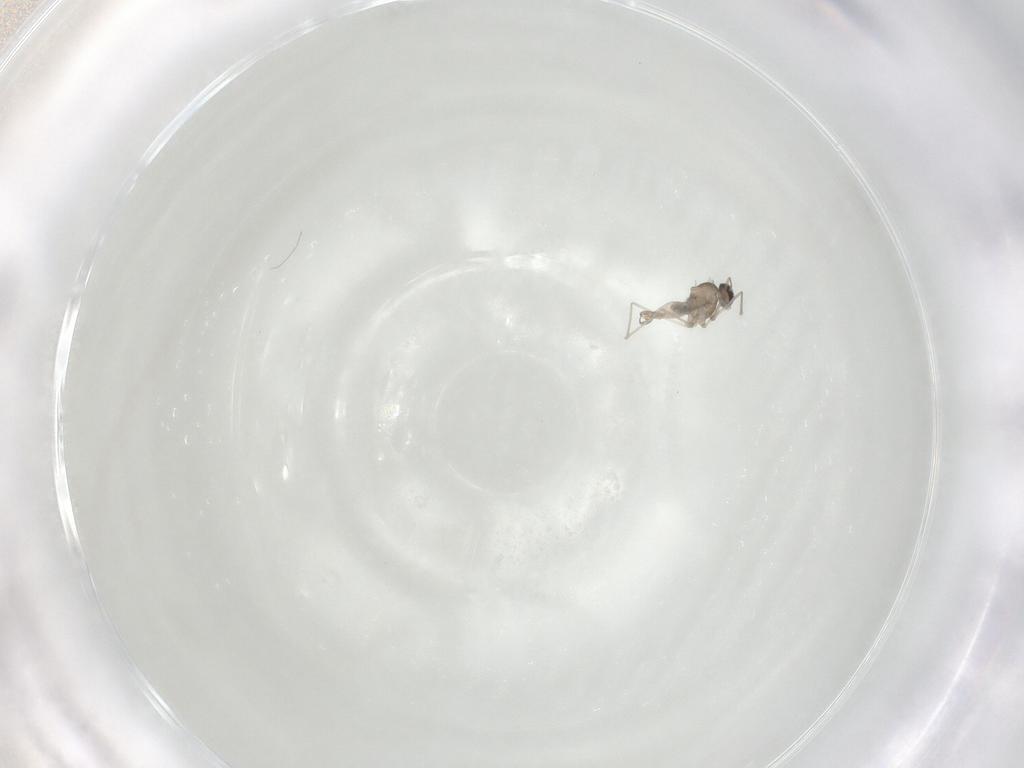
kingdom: Animalia
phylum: Arthropoda
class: Insecta
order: Diptera
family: Cecidomyiidae
